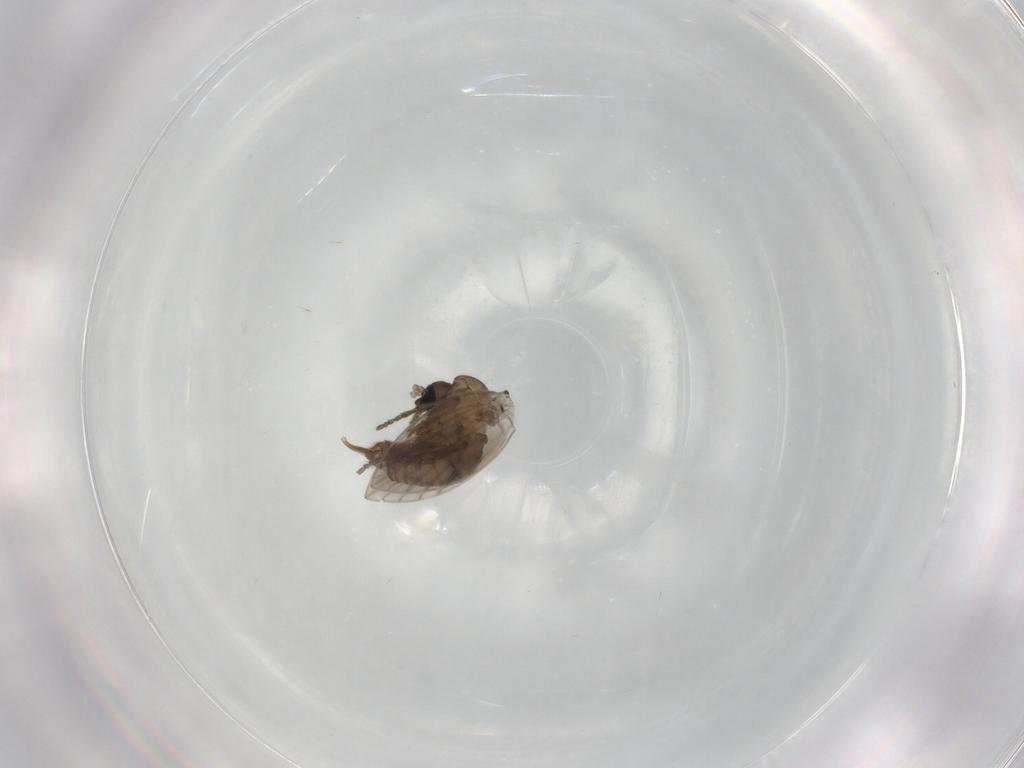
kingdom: Animalia
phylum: Arthropoda
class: Insecta
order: Diptera
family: Psychodidae
